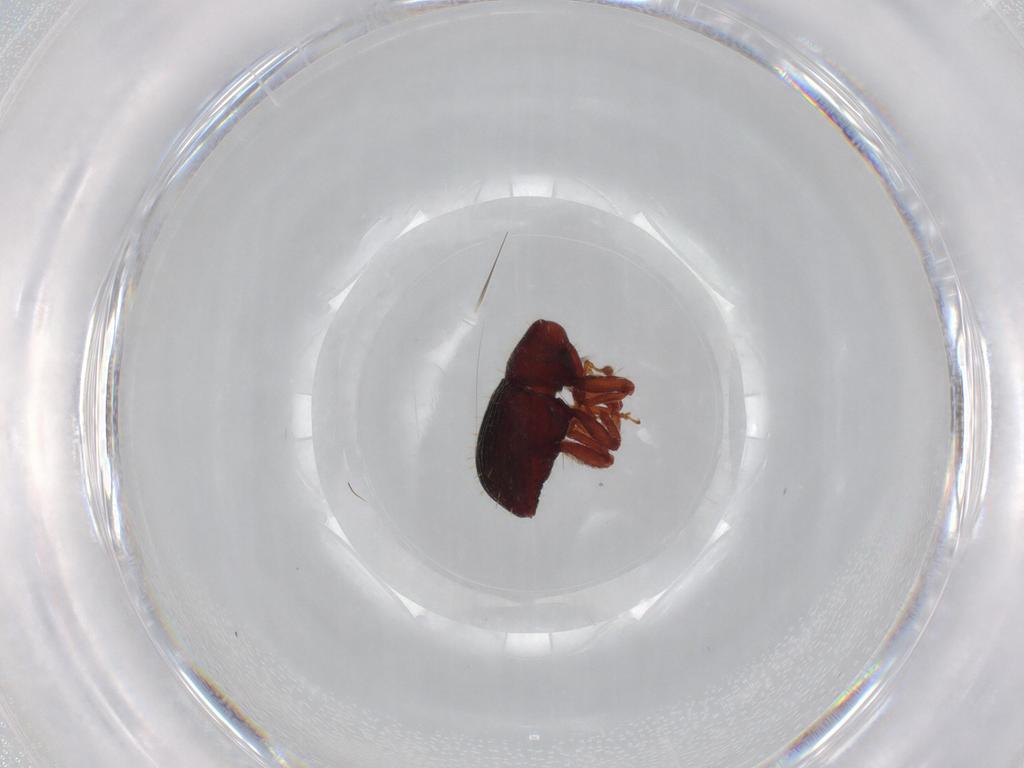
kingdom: Animalia
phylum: Arthropoda
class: Insecta
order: Coleoptera
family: Curculionidae
